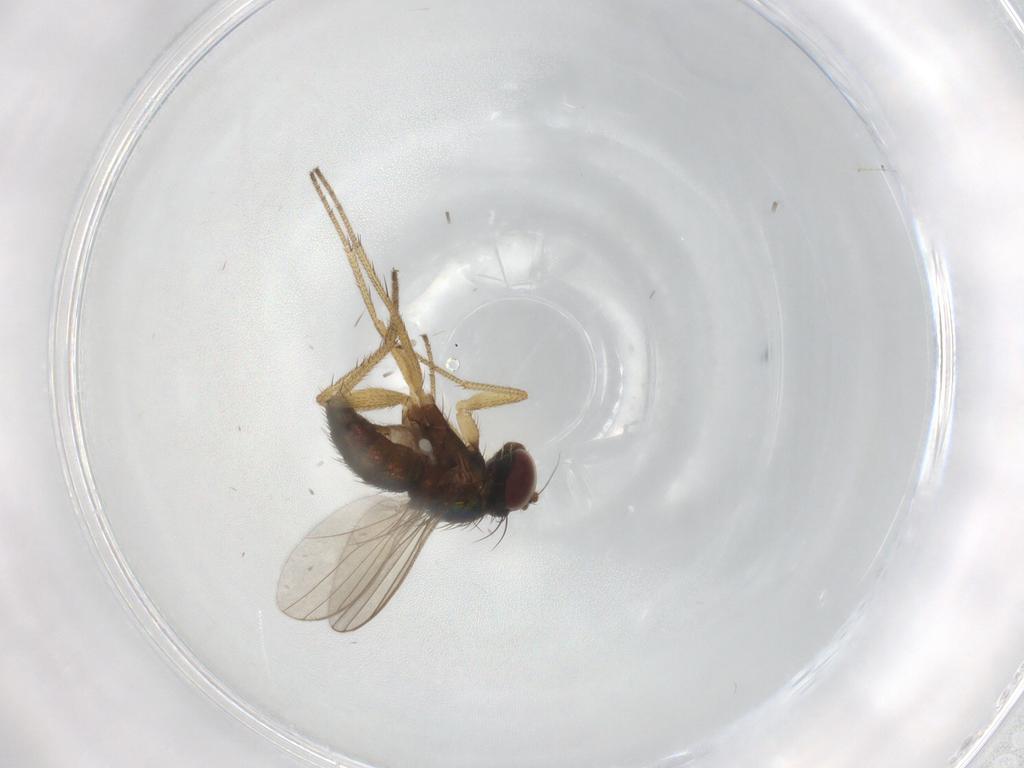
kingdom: Animalia
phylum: Arthropoda
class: Insecta
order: Diptera
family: Dolichopodidae
